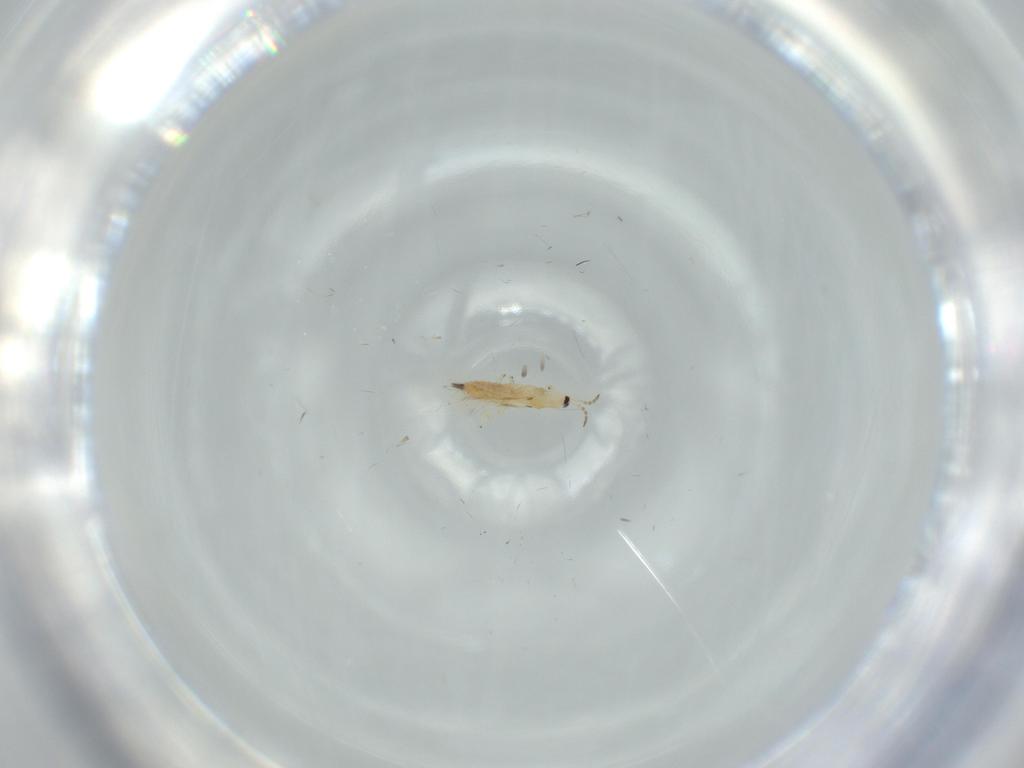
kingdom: Animalia
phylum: Arthropoda
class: Insecta
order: Thysanoptera
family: Phlaeothripidae
